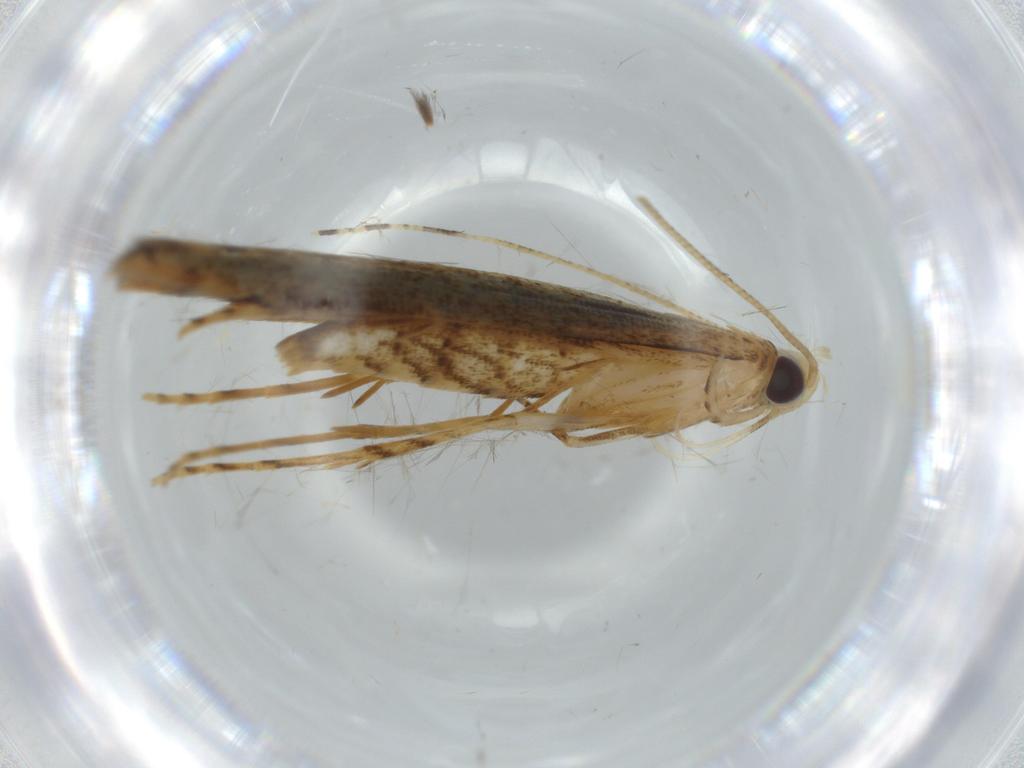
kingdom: Animalia
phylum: Arthropoda
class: Insecta
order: Lepidoptera
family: Batrachedridae
